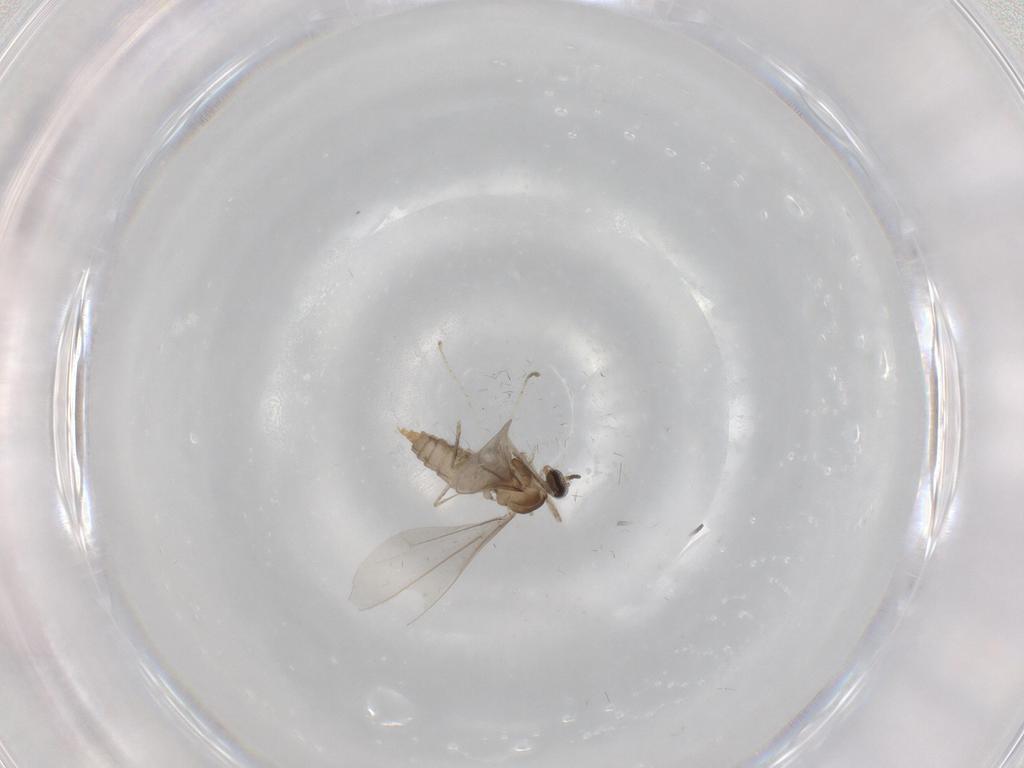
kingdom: Animalia
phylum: Arthropoda
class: Insecta
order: Diptera
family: Cecidomyiidae
